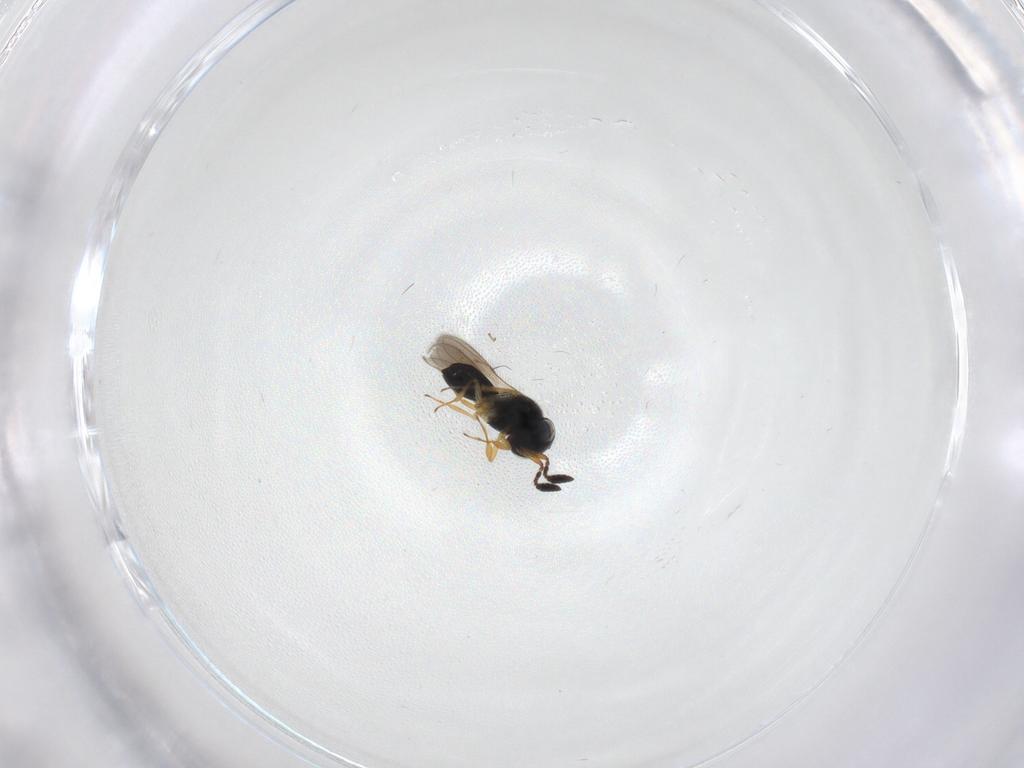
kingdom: Animalia
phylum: Arthropoda
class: Insecta
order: Hymenoptera
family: Scelionidae
